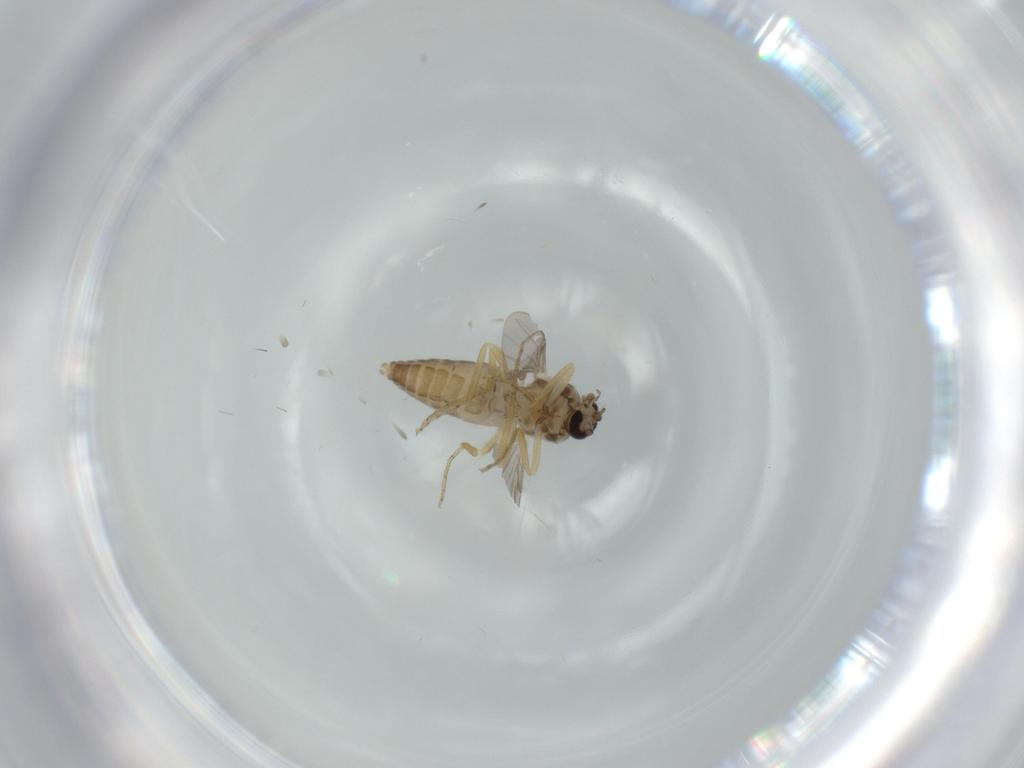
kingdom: Animalia
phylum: Arthropoda
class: Insecta
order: Diptera
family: Ceratopogonidae
